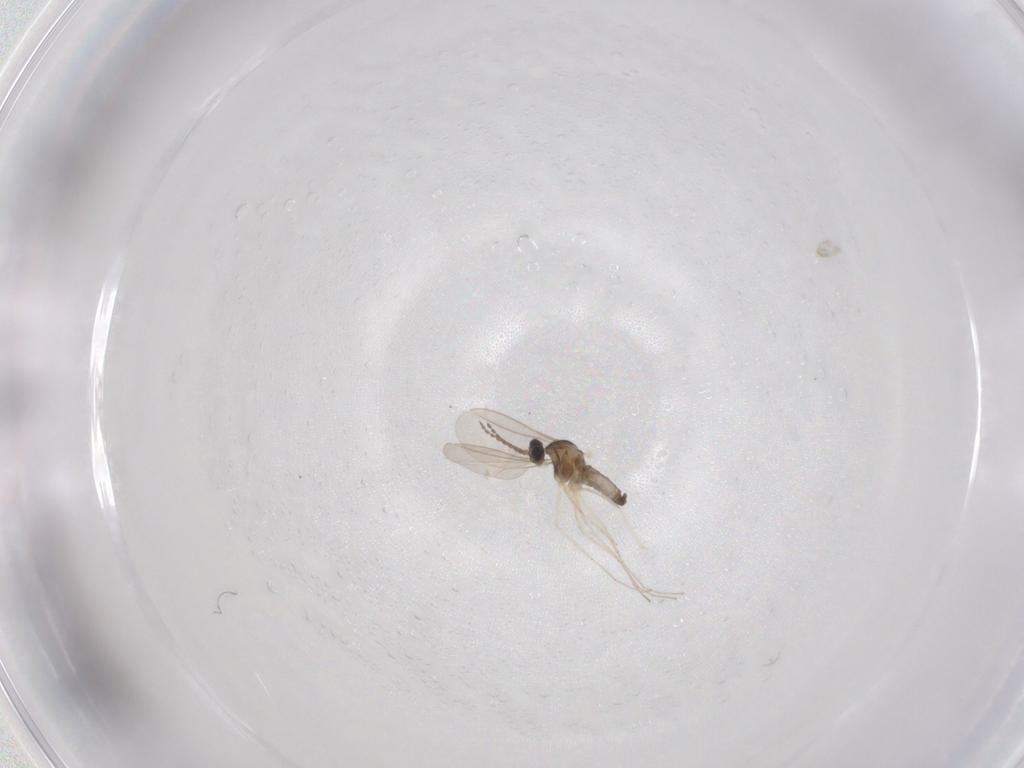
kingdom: Animalia
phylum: Arthropoda
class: Insecta
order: Diptera
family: Cecidomyiidae
